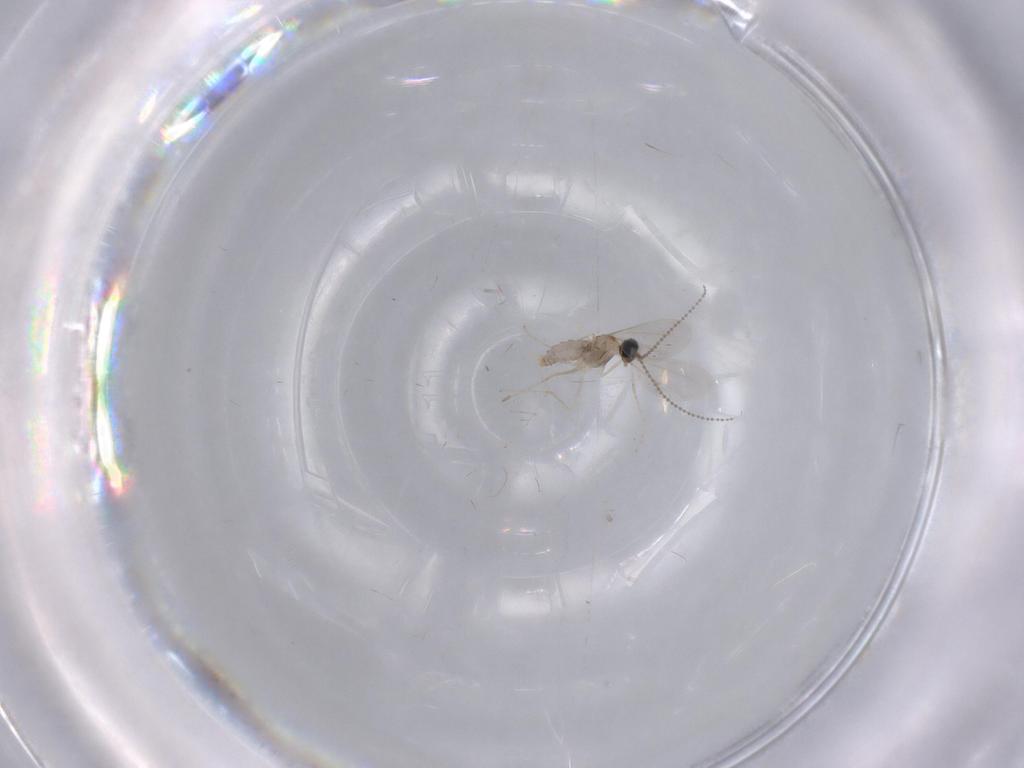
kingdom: Animalia
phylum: Arthropoda
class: Insecta
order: Diptera
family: Cecidomyiidae
